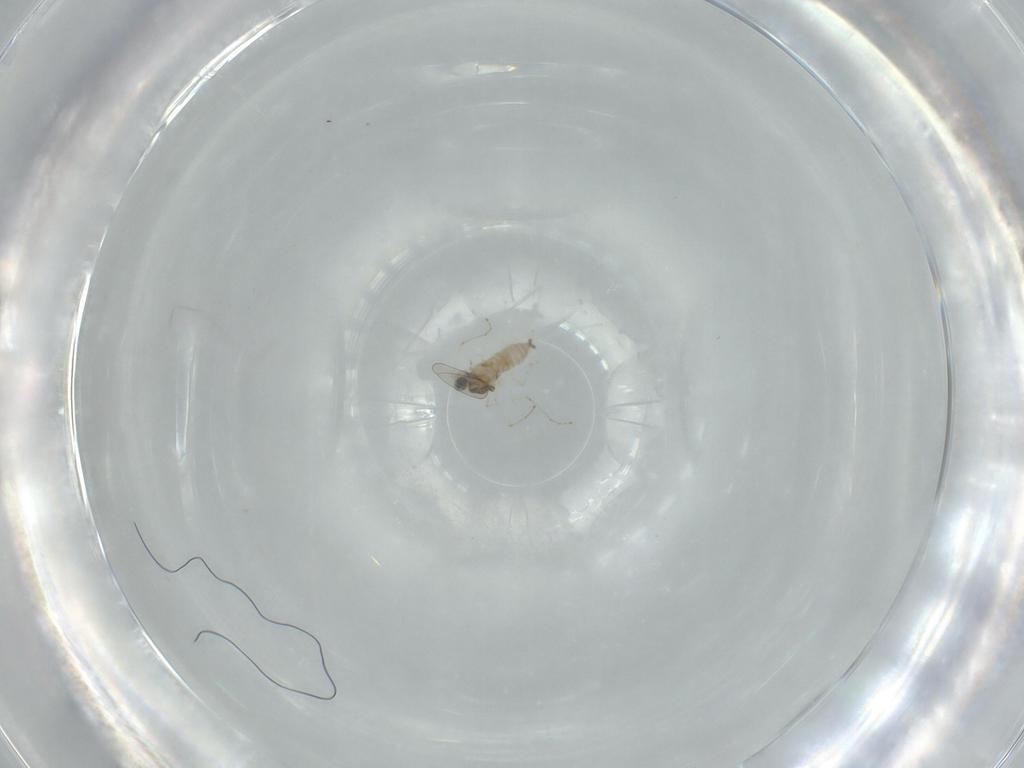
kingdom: Animalia
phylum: Arthropoda
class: Insecta
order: Diptera
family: Cecidomyiidae
